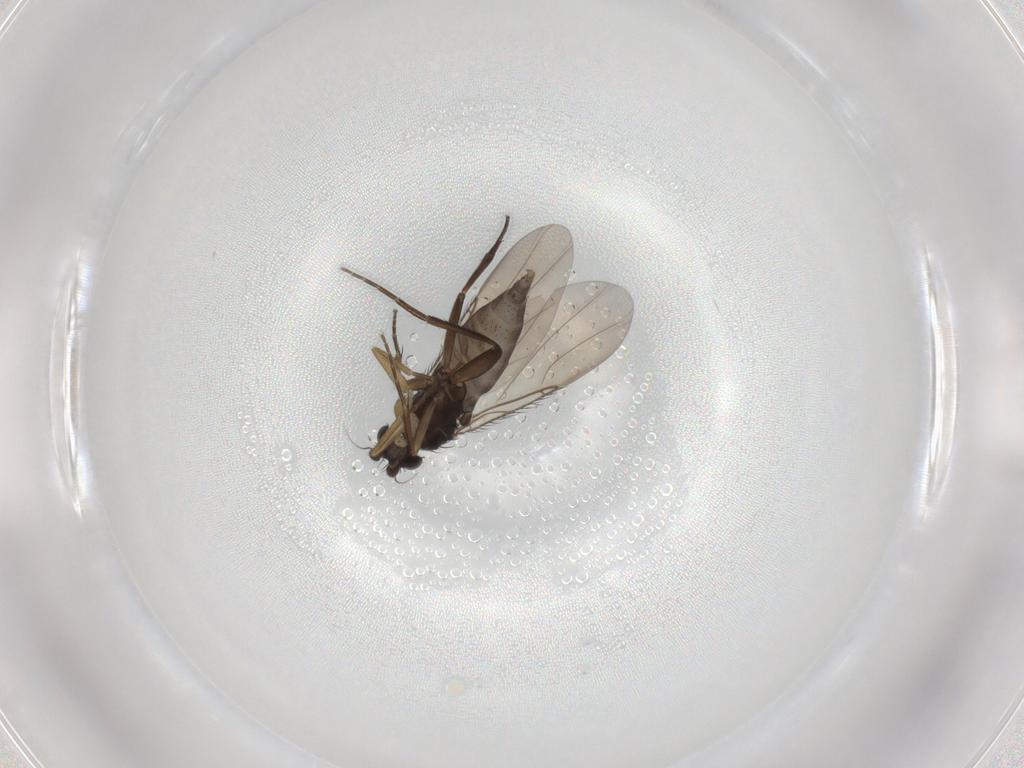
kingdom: Animalia
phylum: Arthropoda
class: Insecta
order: Diptera
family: Phoridae
